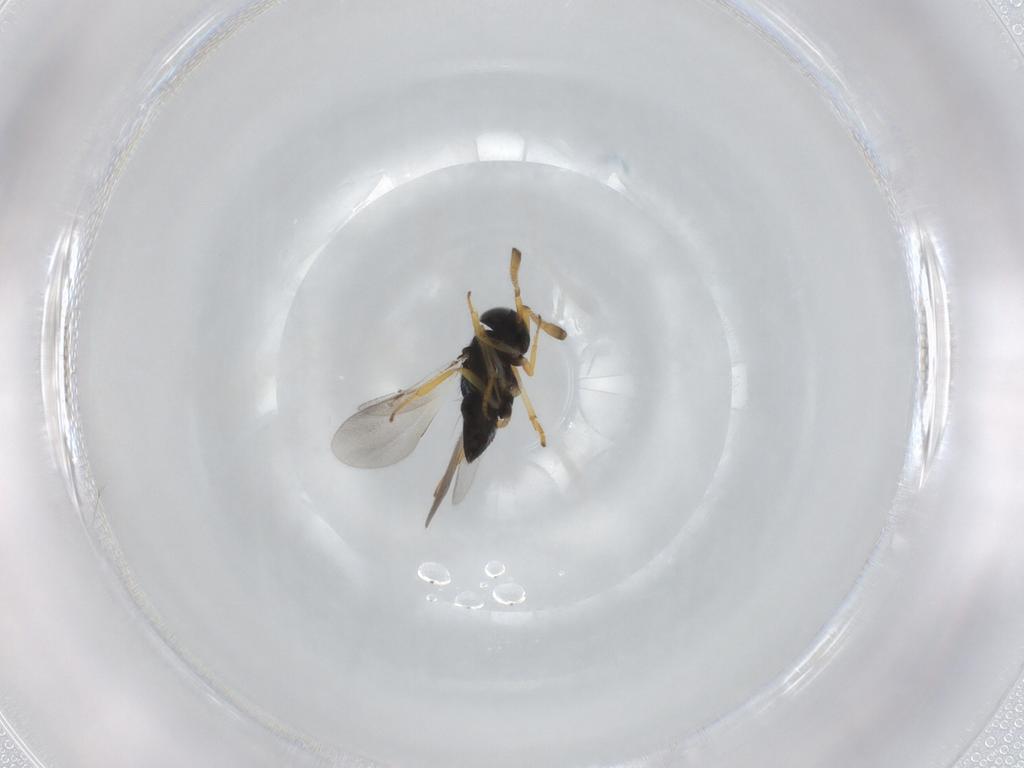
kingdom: Animalia
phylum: Arthropoda
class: Insecta
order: Hymenoptera
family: Encyrtidae
